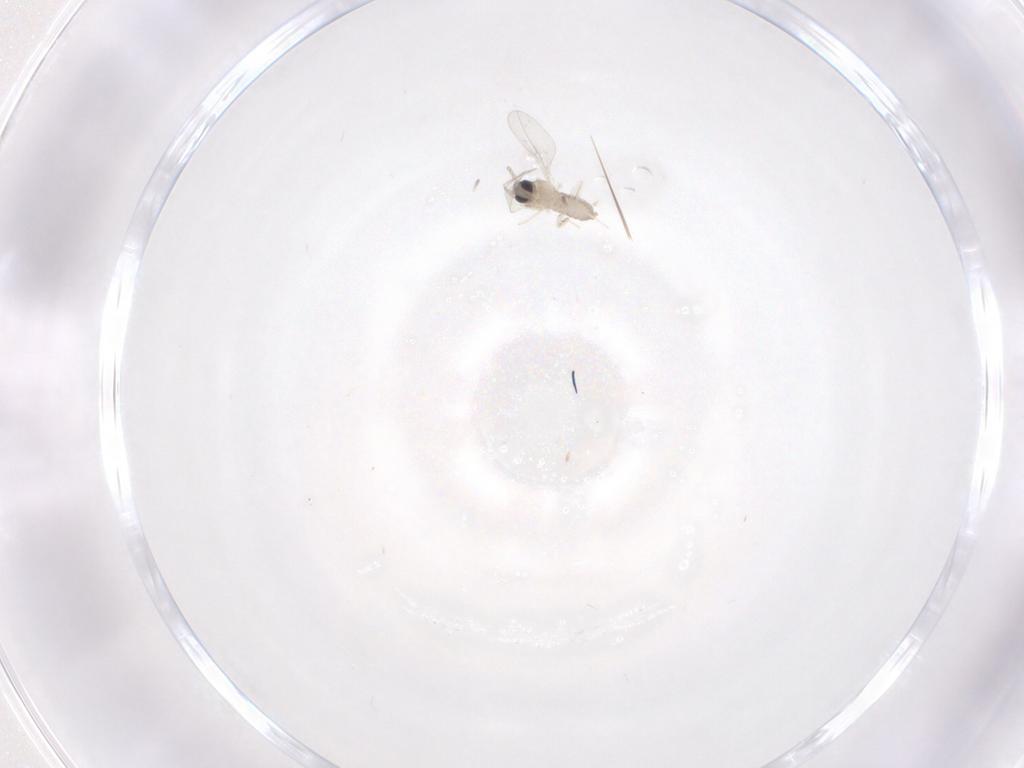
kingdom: Animalia
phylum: Arthropoda
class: Insecta
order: Diptera
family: Cecidomyiidae
